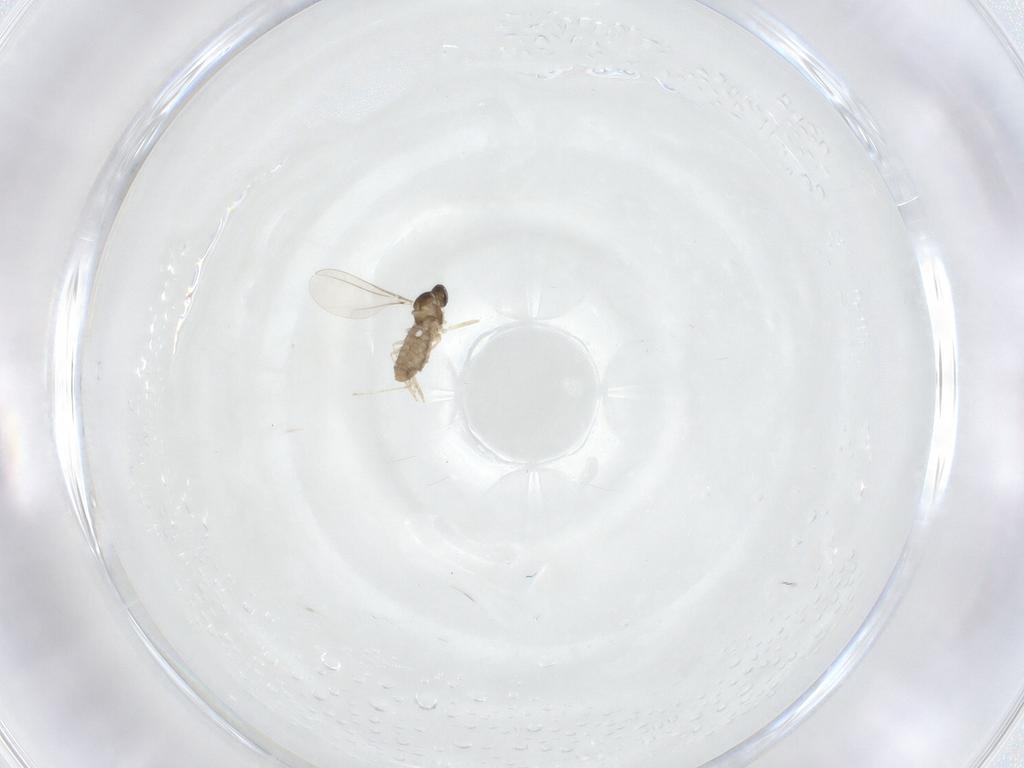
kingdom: Animalia
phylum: Arthropoda
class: Insecta
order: Diptera
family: Cecidomyiidae
